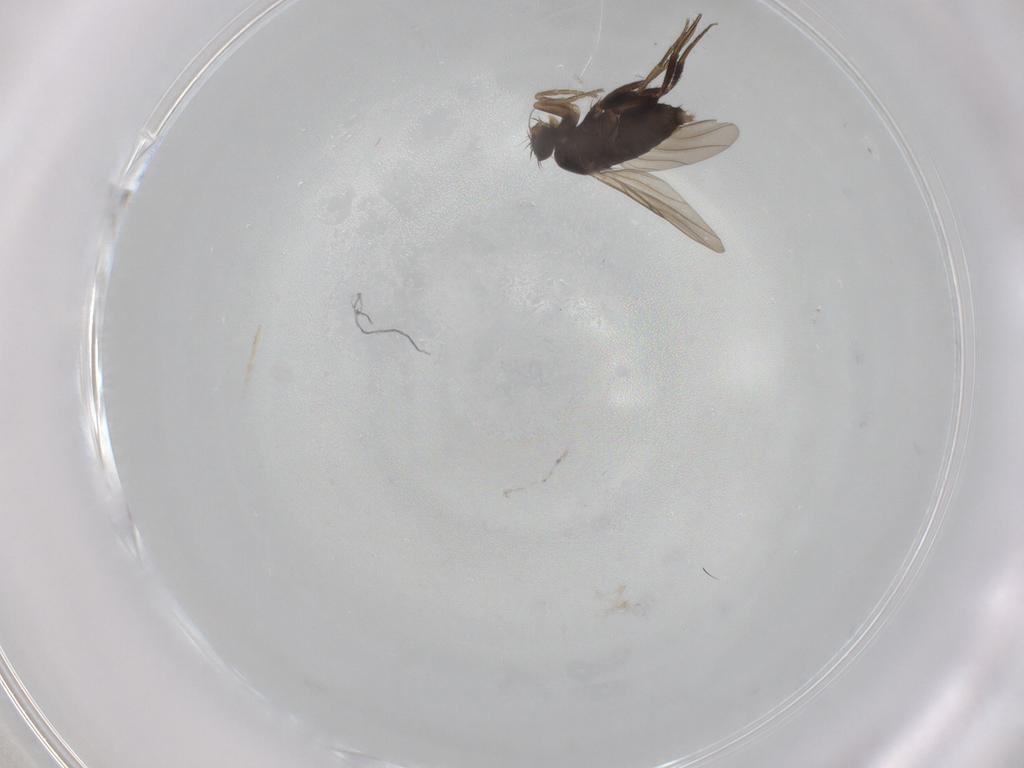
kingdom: Animalia
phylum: Arthropoda
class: Insecta
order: Diptera
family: Phoridae
